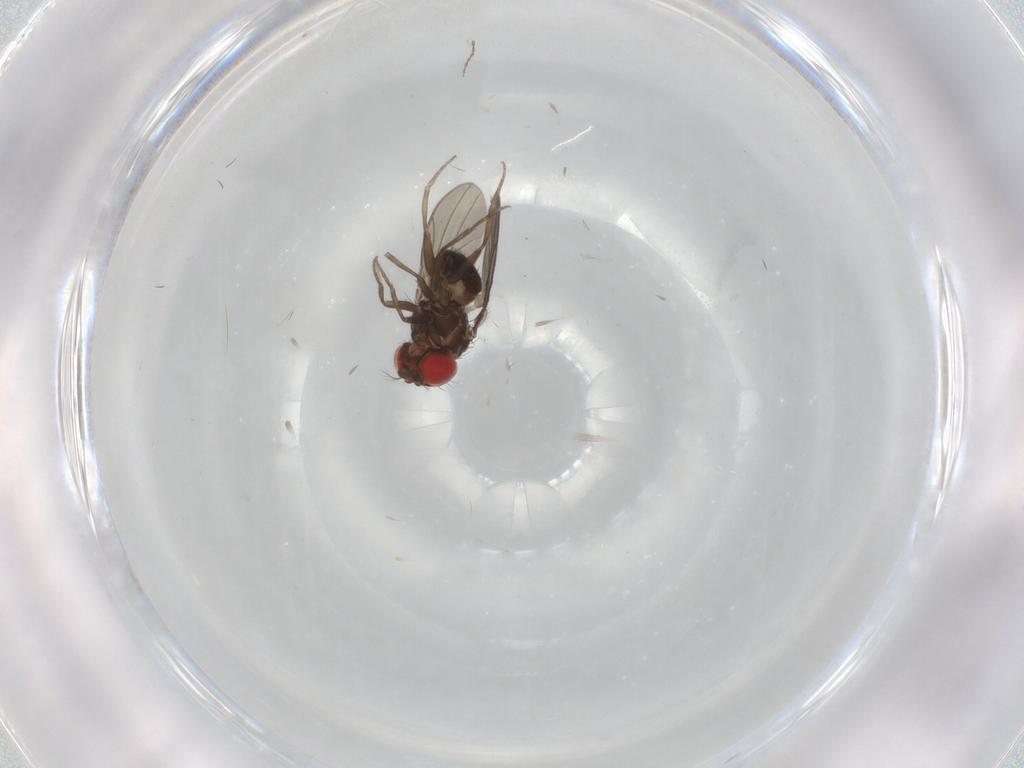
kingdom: Animalia
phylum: Arthropoda
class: Insecta
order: Diptera
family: Drosophilidae
